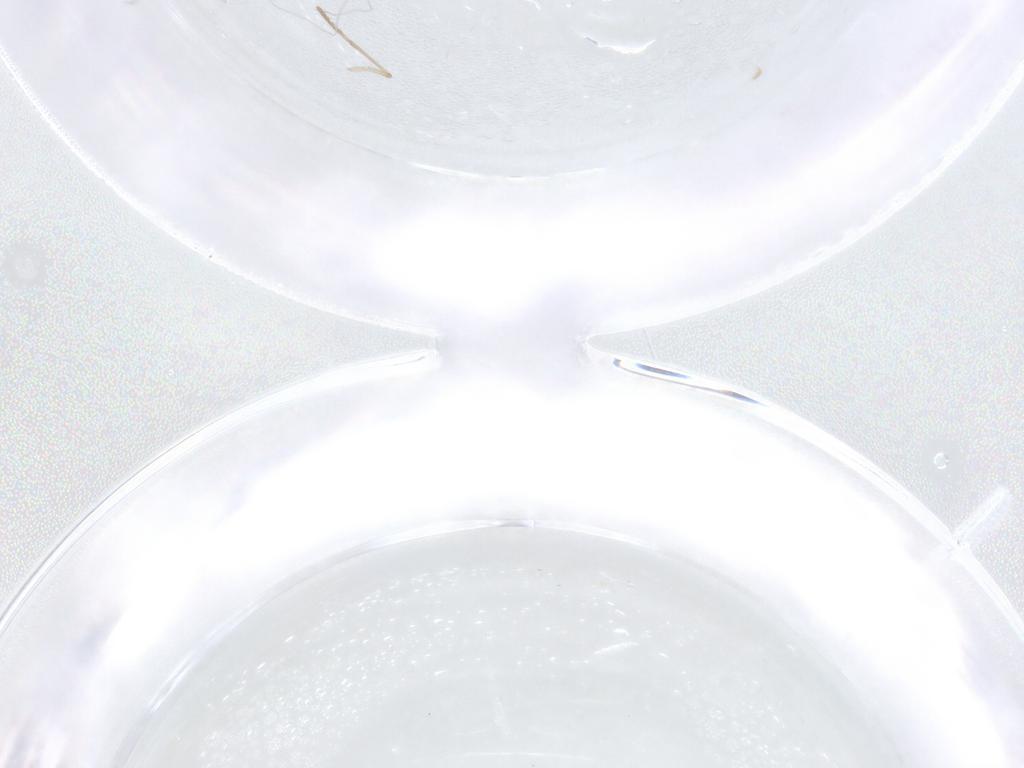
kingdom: Animalia
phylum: Arthropoda
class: Insecta
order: Diptera
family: Cecidomyiidae
